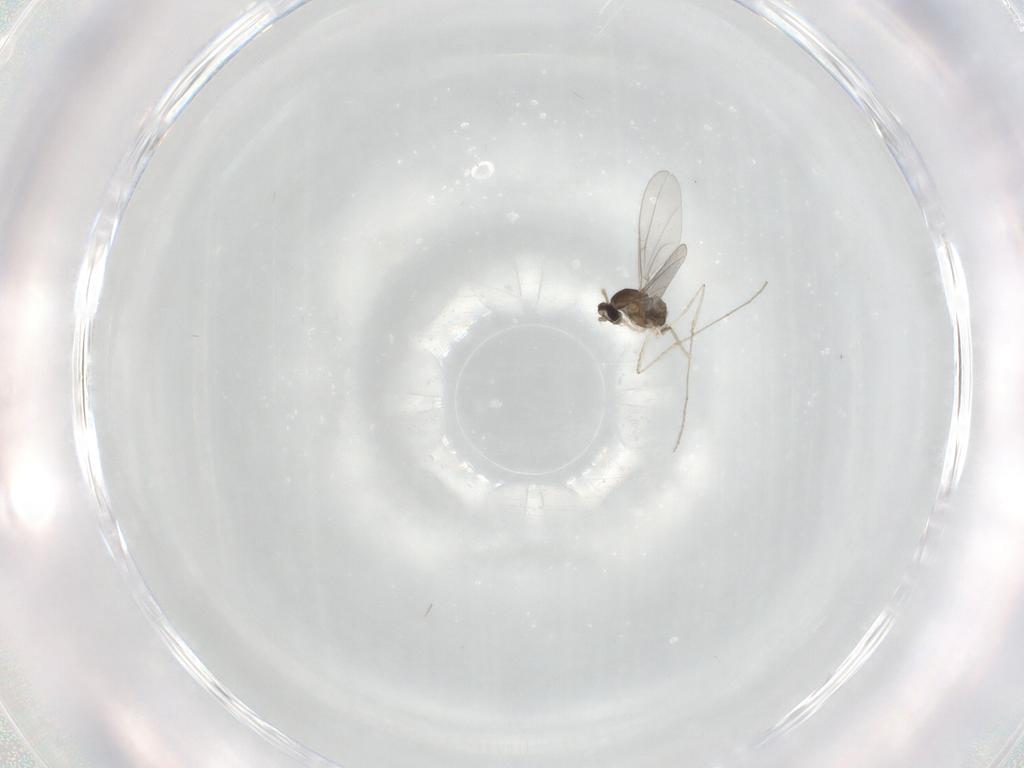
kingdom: Animalia
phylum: Arthropoda
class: Insecta
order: Diptera
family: Cecidomyiidae
